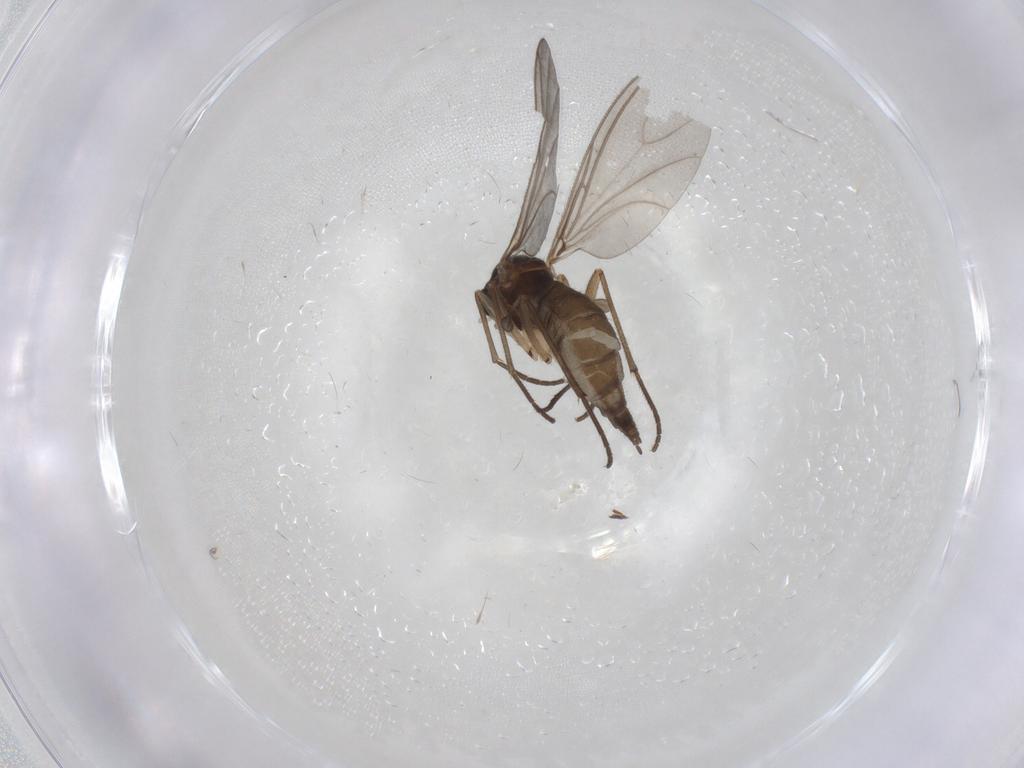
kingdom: Animalia
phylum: Arthropoda
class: Insecta
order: Diptera
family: Sciaridae
